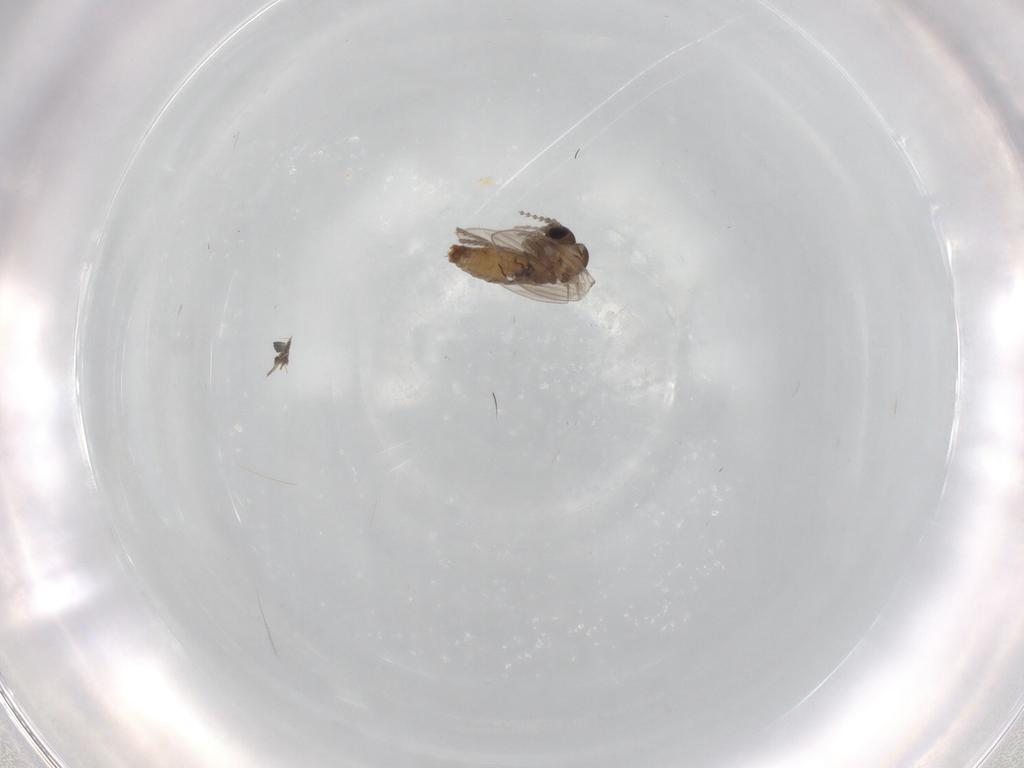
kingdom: Animalia
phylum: Arthropoda
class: Insecta
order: Diptera
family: Psychodidae
